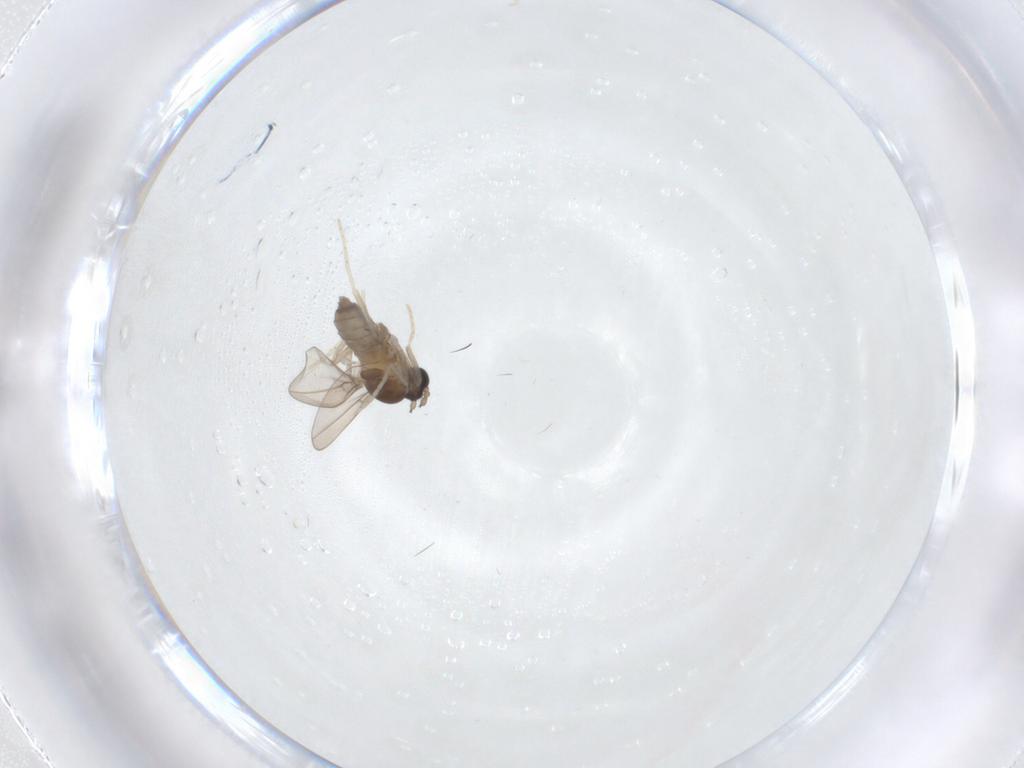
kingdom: Animalia
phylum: Arthropoda
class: Insecta
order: Diptera
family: Cecidomyiidae
